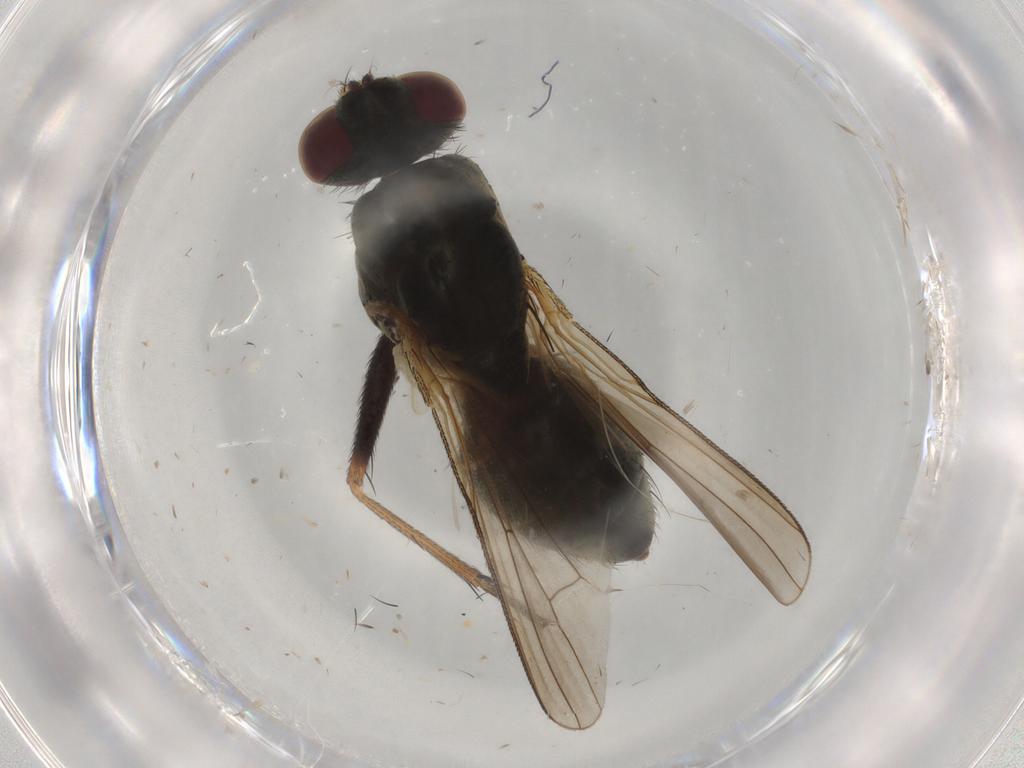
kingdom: Animalia
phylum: Arthropoda
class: Insecta
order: Diptera
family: Muscidae
